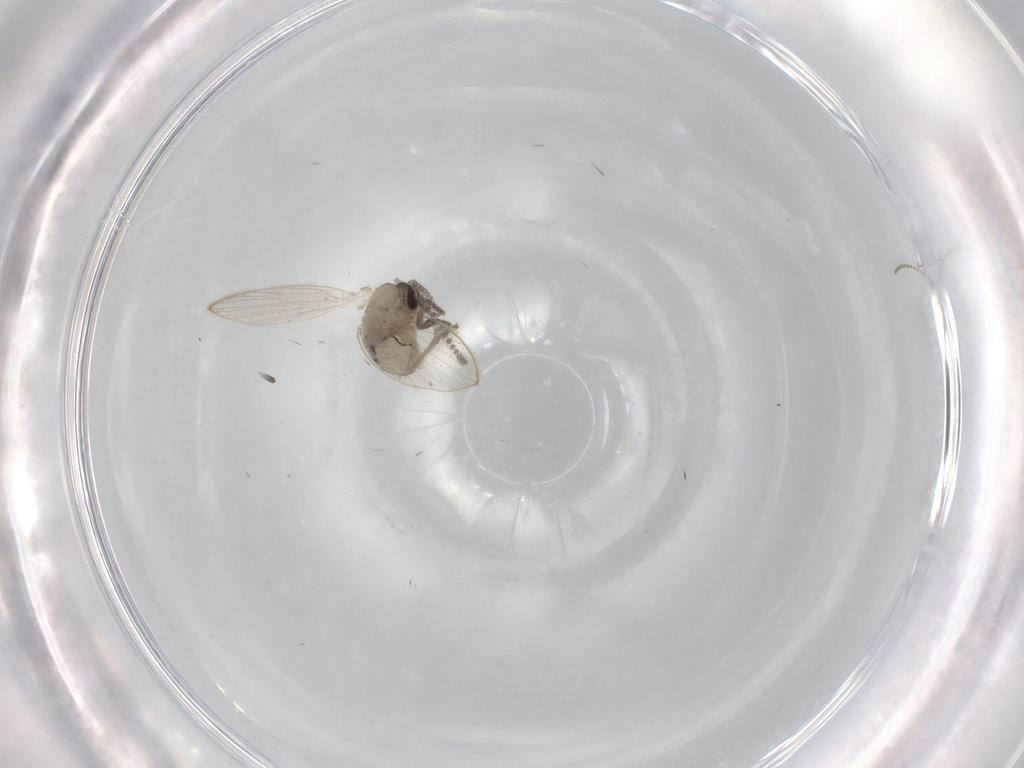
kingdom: Animalia
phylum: Arthropoda
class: Insecta
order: Diptera
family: Psychodidae
